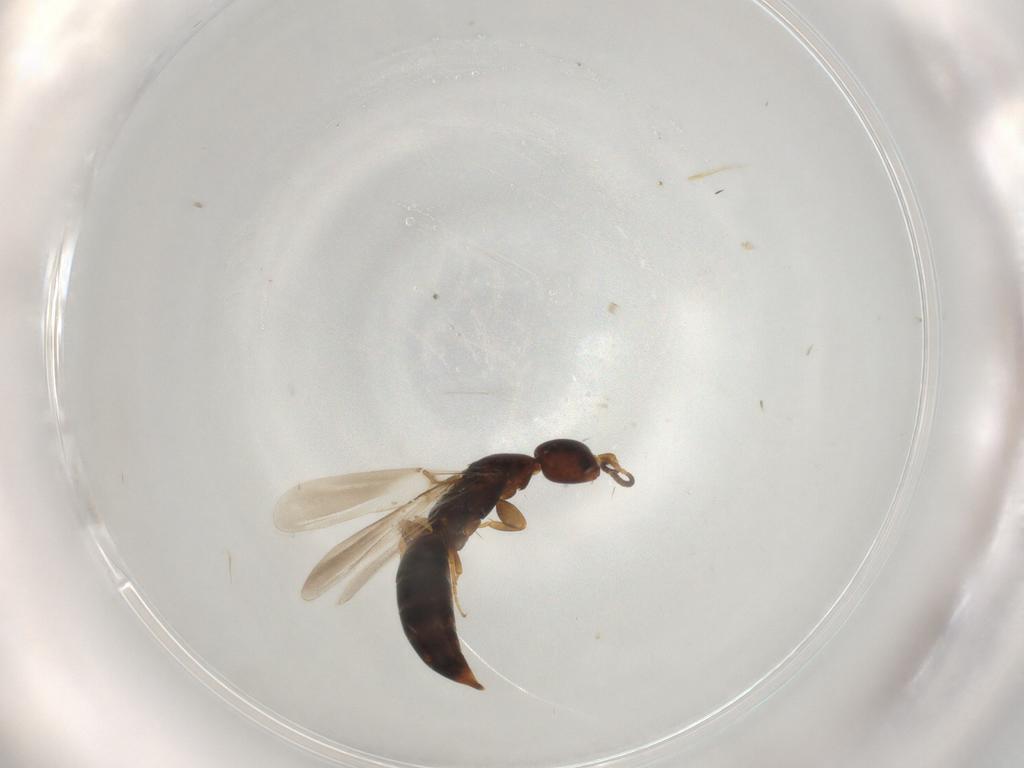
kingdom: Animalia
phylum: Arthropoda
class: Insecta
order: Hymenoptera
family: Bethylidae
